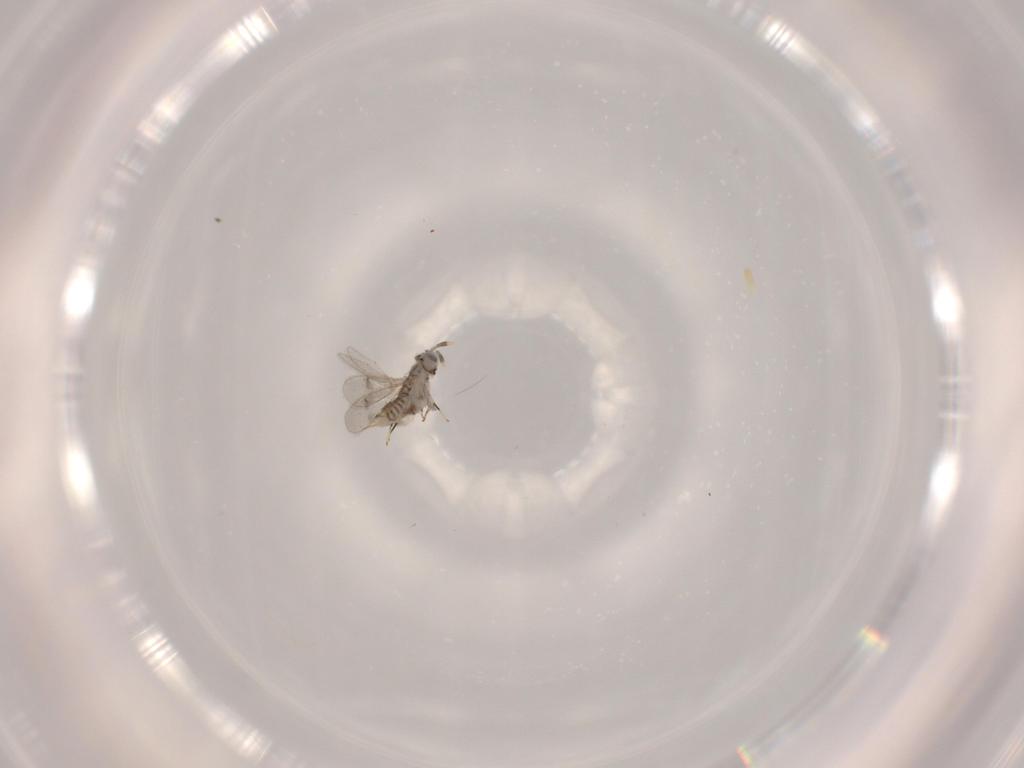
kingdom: Animalia
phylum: Arthropoda
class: Insecta
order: Hymenoptera
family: Aphelinidae
